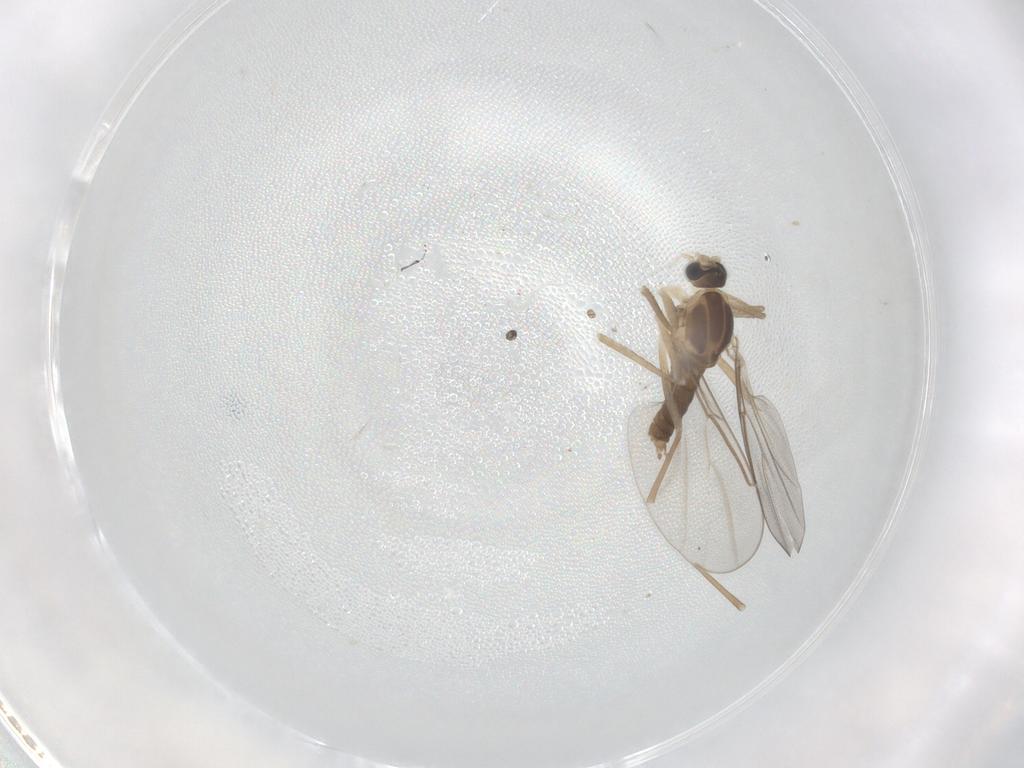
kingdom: Animalia
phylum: Arthropoda
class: Insecta
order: Diptera
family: Cecidomyiidae
